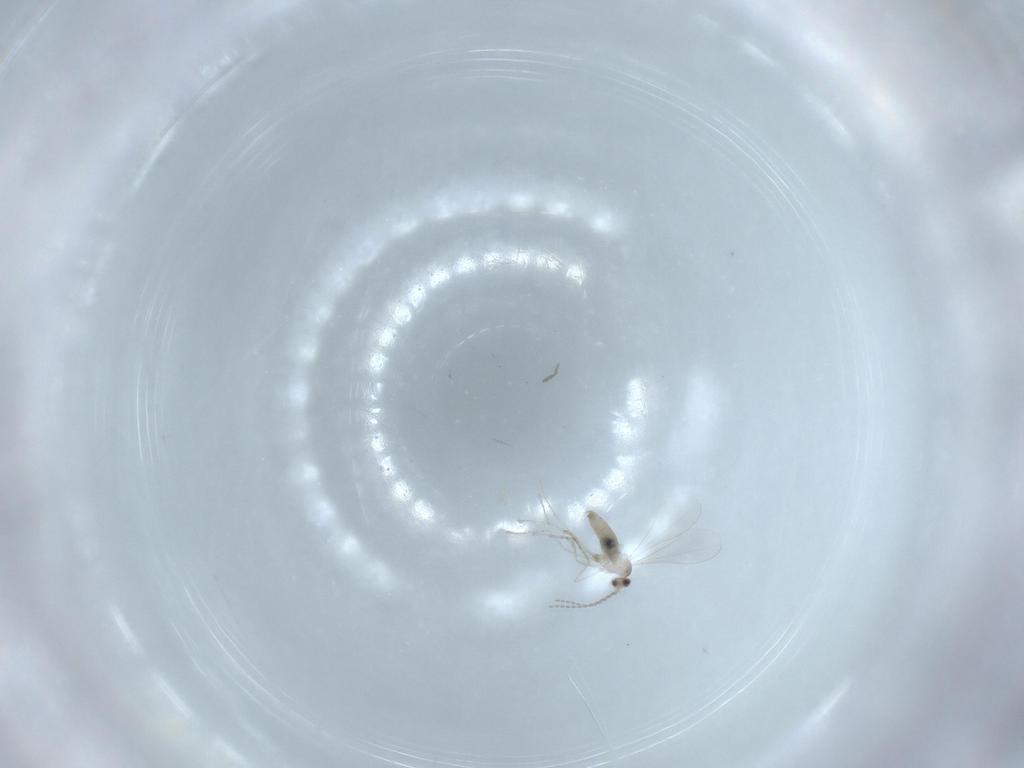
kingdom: Animalia
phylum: Arthropoda
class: Insecta
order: Diptera
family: Cecidomyiidae
